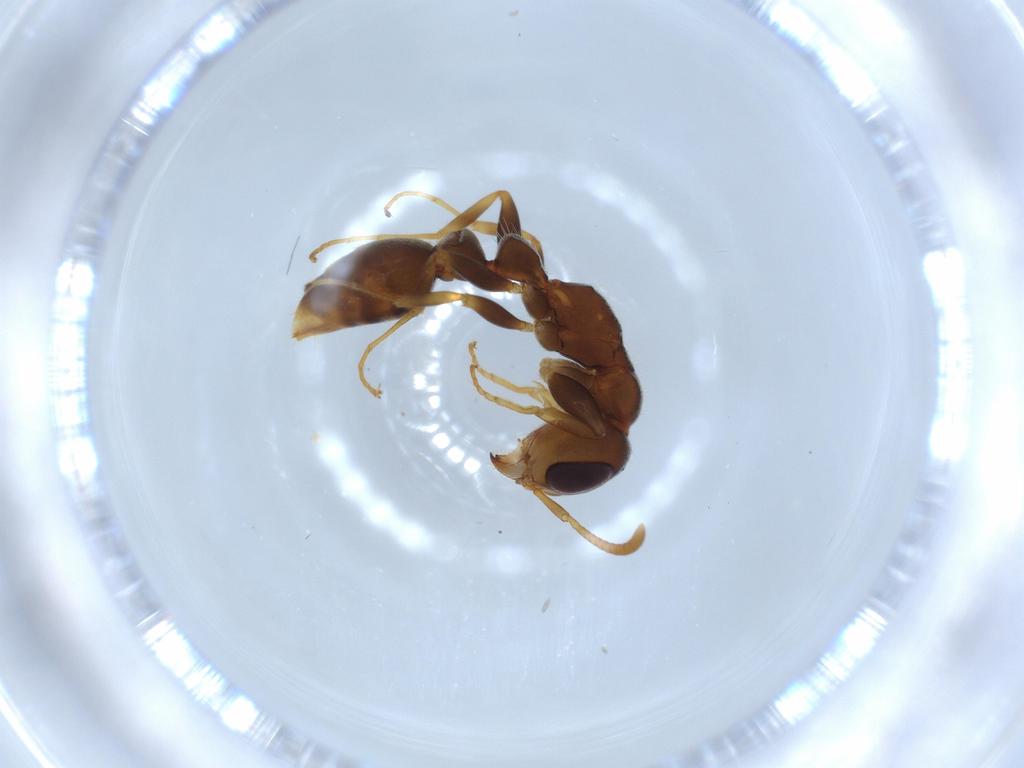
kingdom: Animalia
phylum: Arthropoda
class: Insecta
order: Hymenoptera
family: Formicidae
